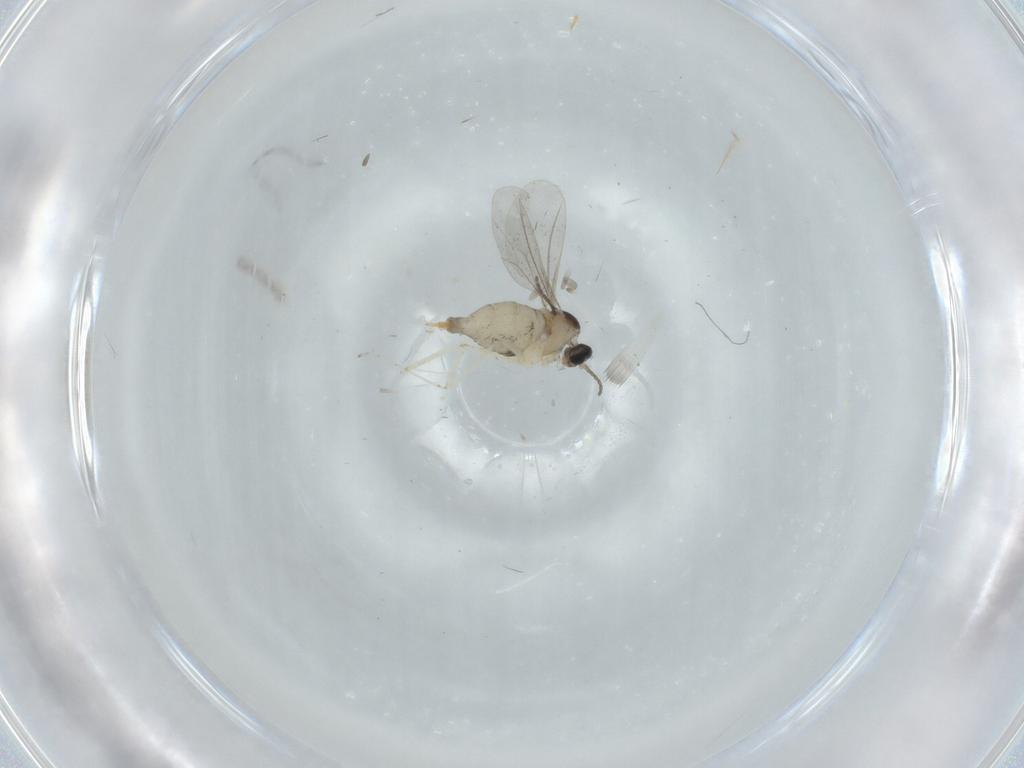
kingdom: Animalia
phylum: Arthropoda
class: Insecta
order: Diptera
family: Cecidomyiidae
